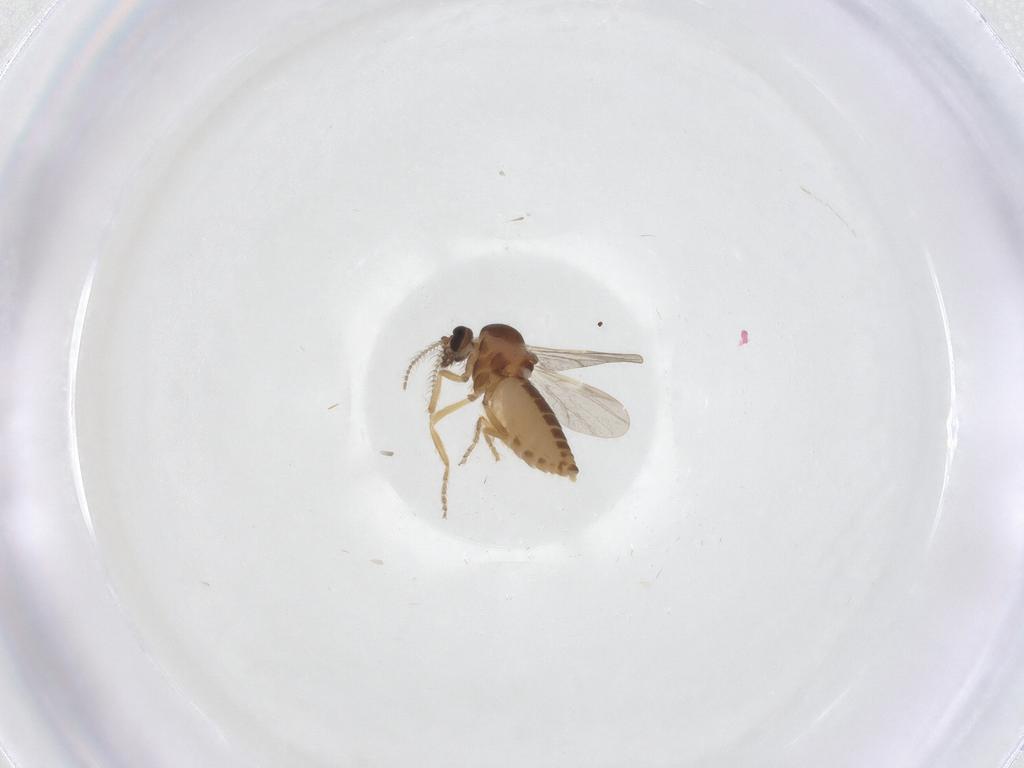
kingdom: Animalia
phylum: Arthropoda
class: Insecta
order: Diptera
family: Ceratopogonidae
